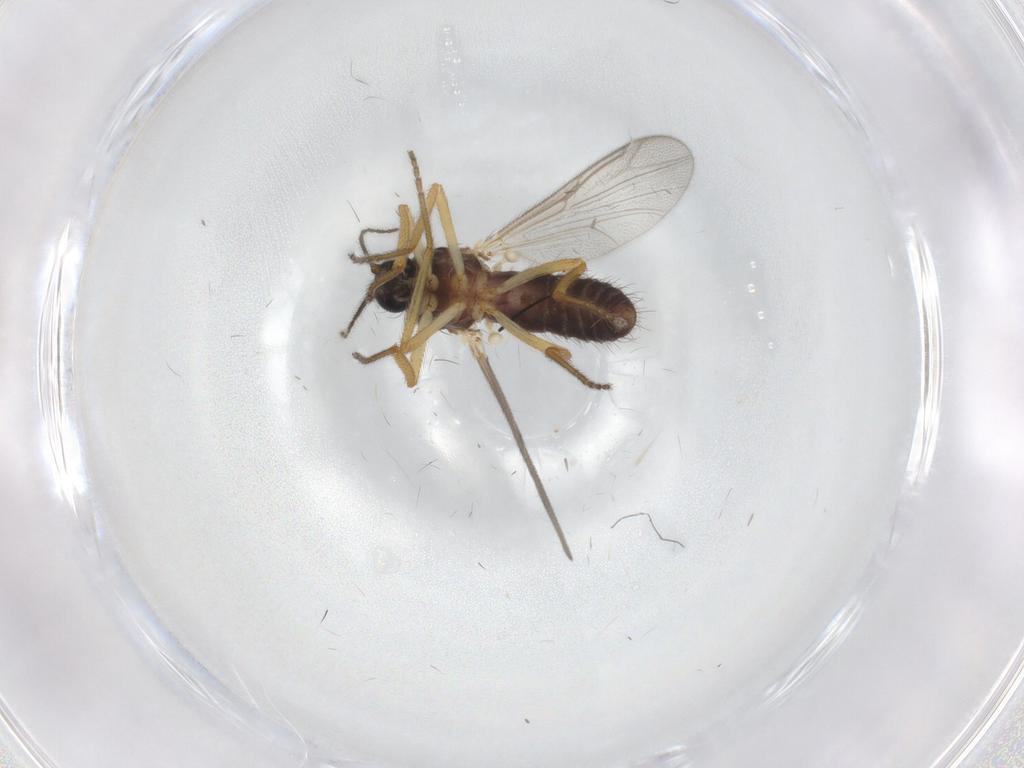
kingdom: Animalia
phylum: Arthropoda
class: Insecta
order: Diptera
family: Ceratopogonidae
